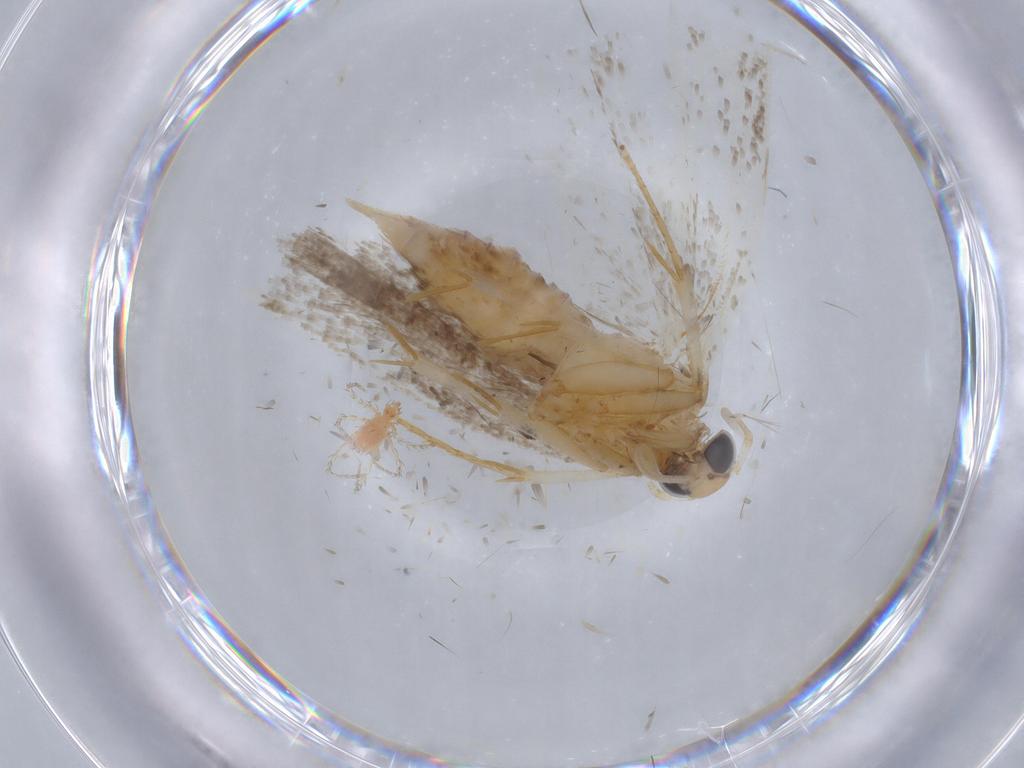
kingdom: Animalia
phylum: Arthropoda
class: Insecta
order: Lepidoptera
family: Gelechiidae
